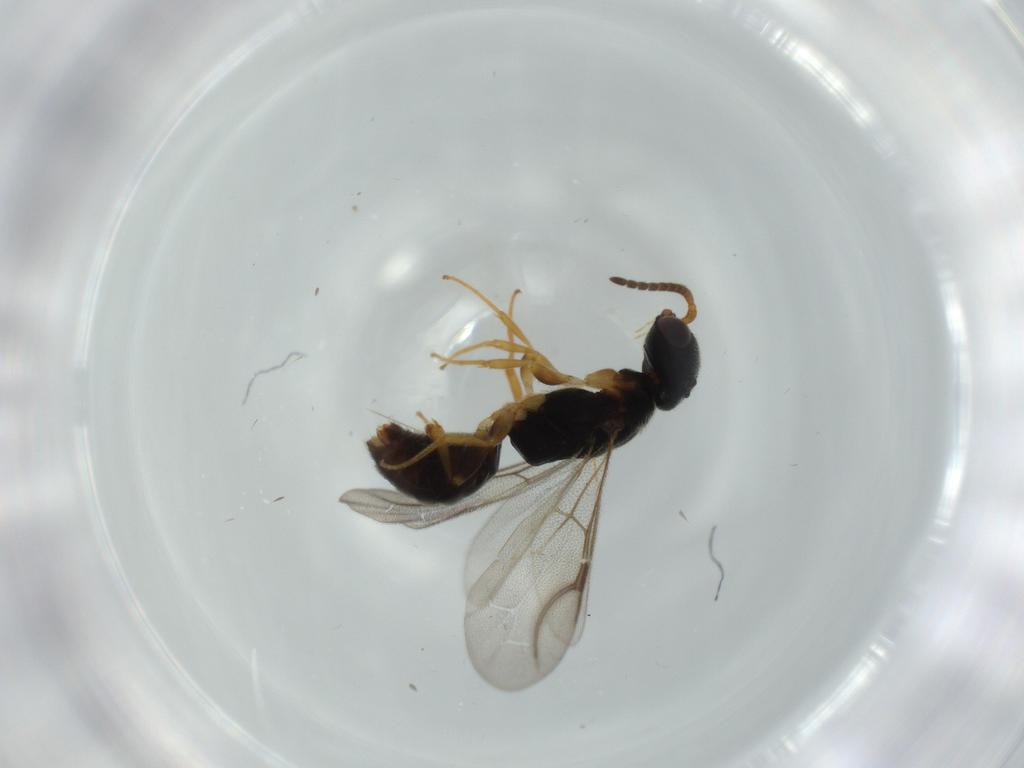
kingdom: Animalia
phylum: Arthropoda
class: Insecta
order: Hymenoptera
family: Bethylidae
